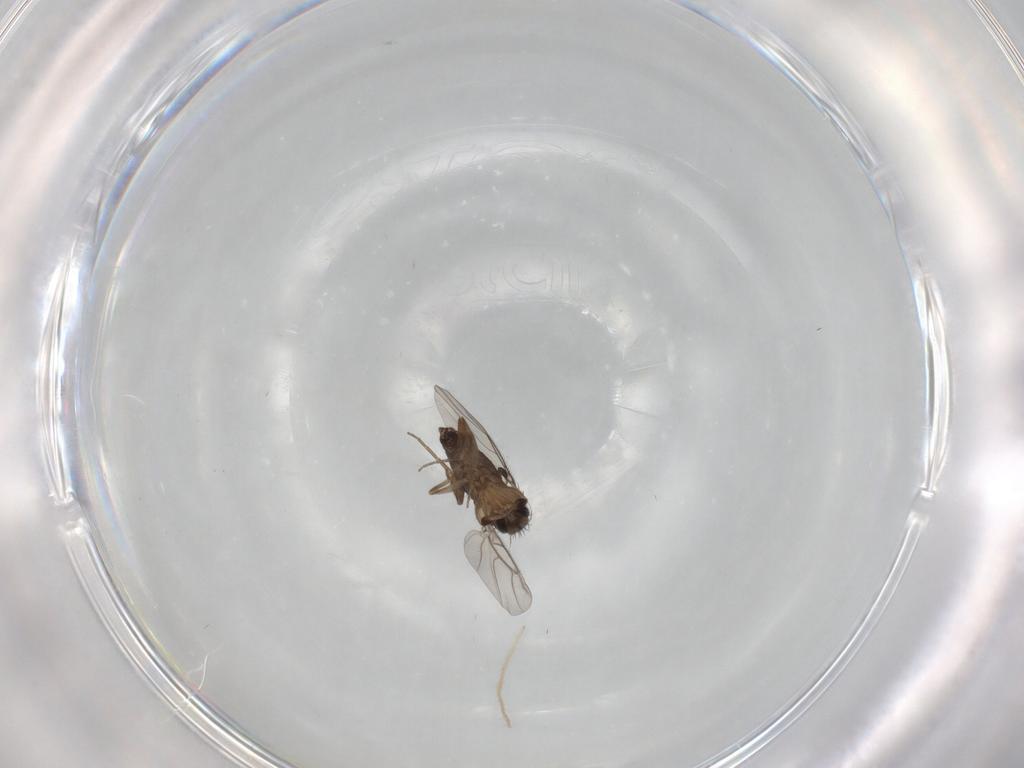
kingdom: Animalia
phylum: Arthropoda
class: Insecta
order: Diptera
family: Phoridae
